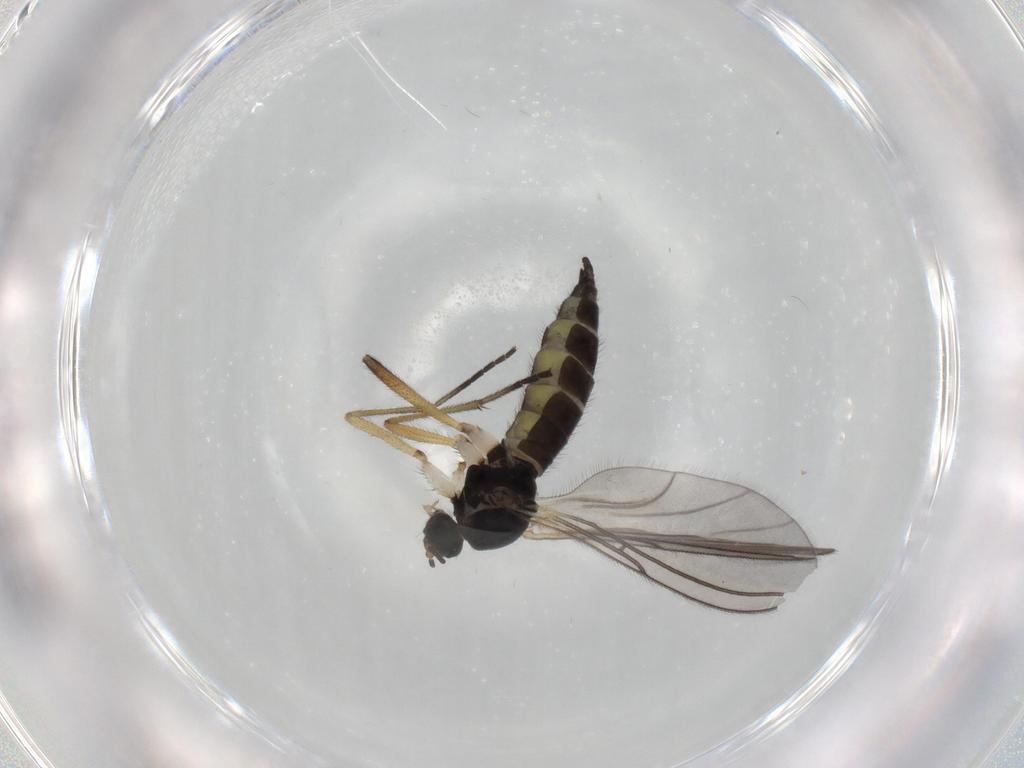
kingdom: Animalia
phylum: Arthropoda
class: Insecta
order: Diptera
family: Sciaridae
